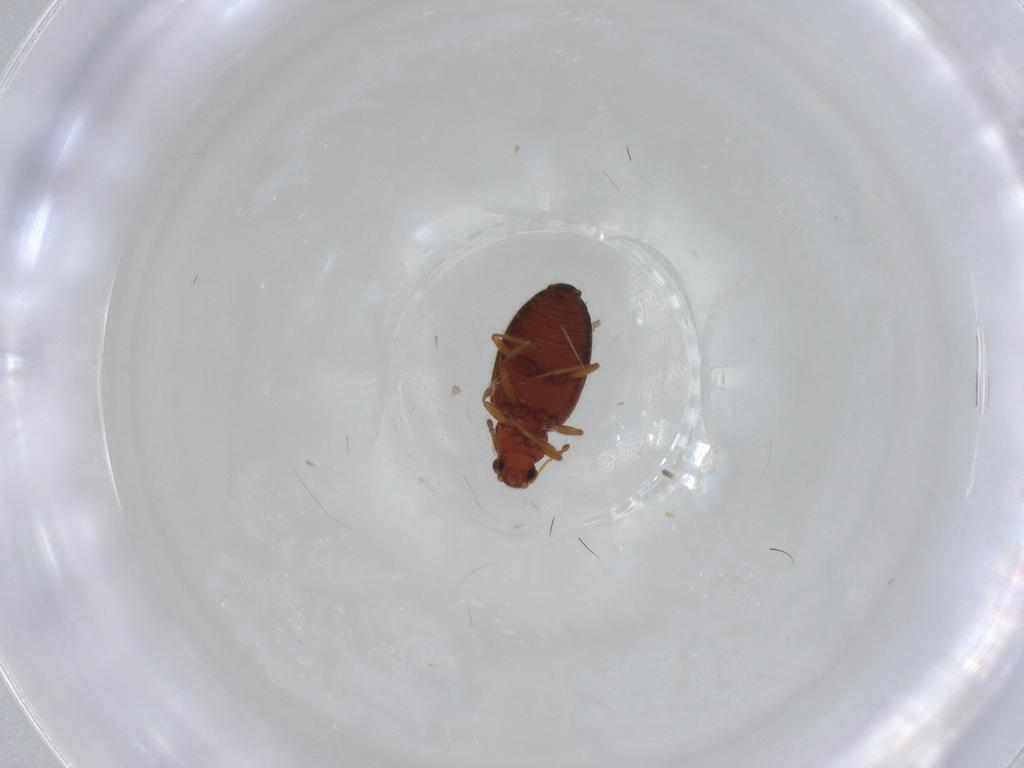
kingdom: Animalia
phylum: Arthropoda
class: Insecta
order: Coleoptera
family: Latridiidae
